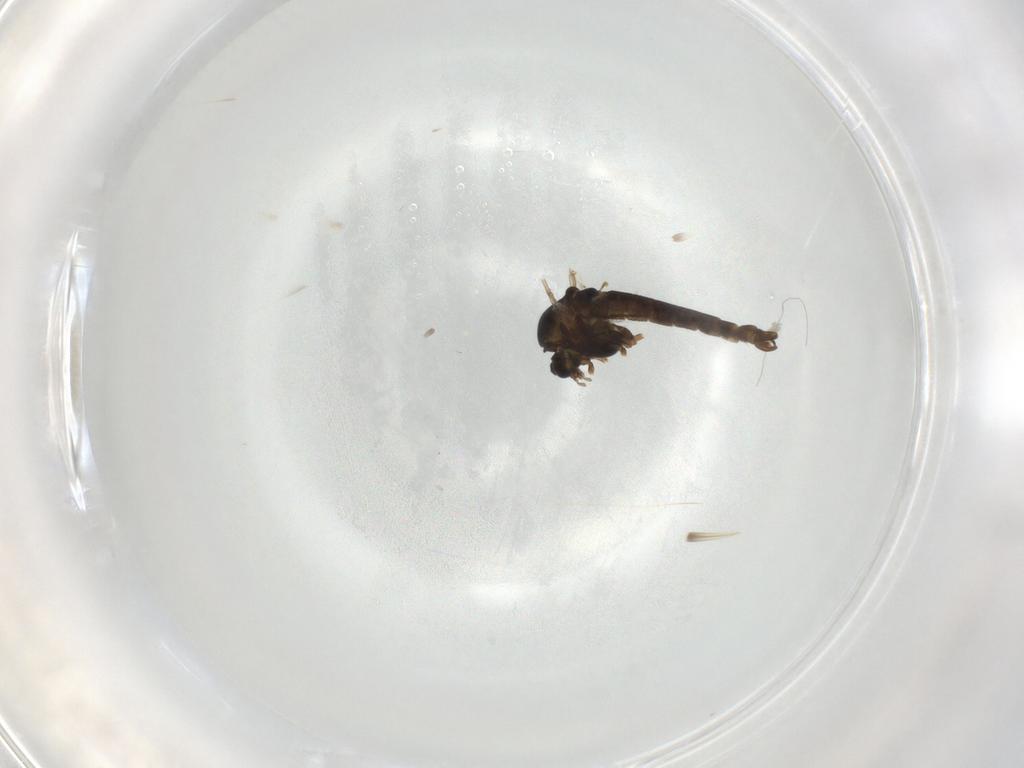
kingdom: Animalia
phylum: Arthropoda
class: Insecta
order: Diptera
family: Chironomidae
